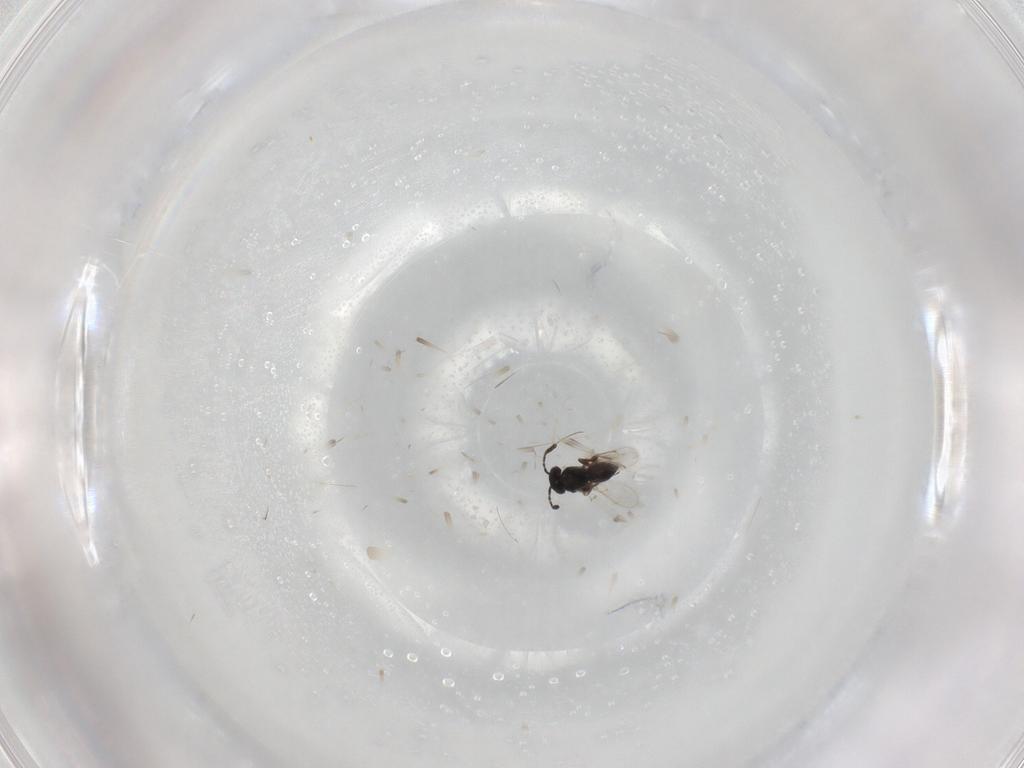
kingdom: Animalia
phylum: Arthropoda
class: Insecta
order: Hymenoptera
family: Scelionidae
